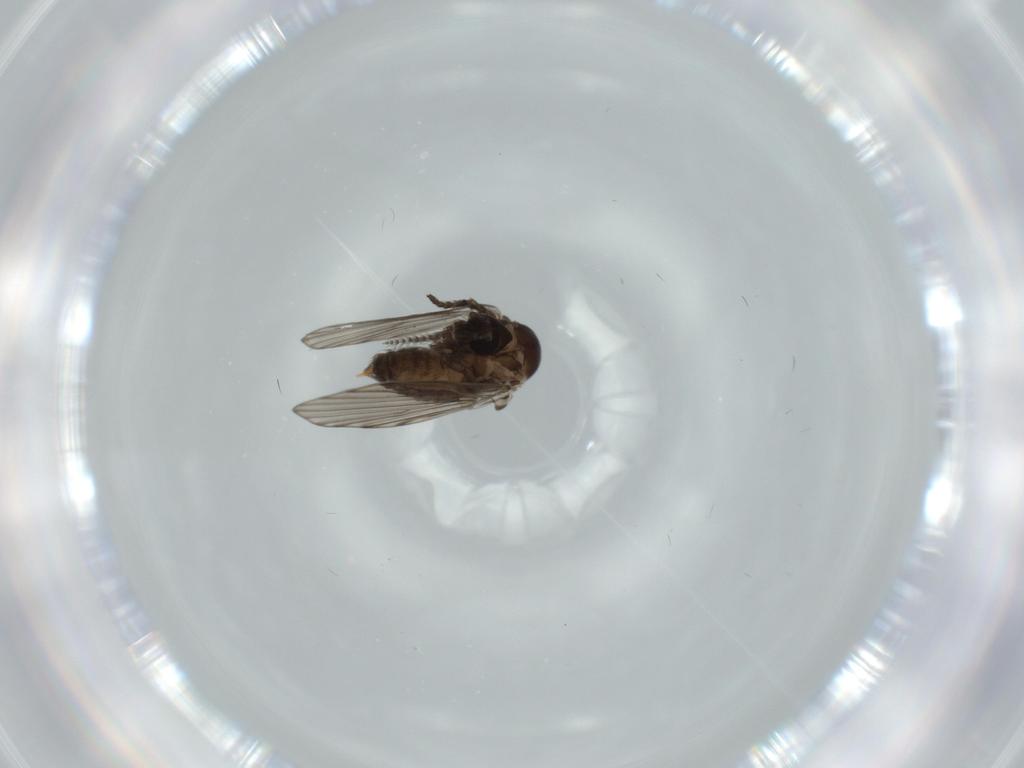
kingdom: Animalia
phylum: Arthropoda
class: Insecta
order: Diptera
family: Psychodidae
